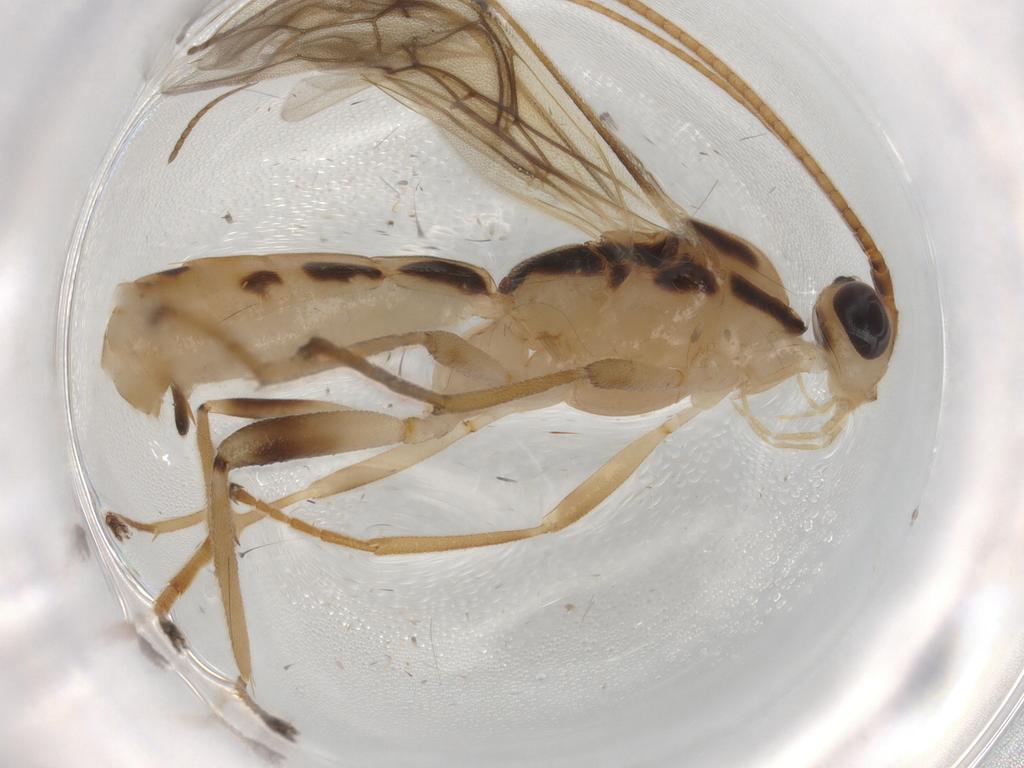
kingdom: Animalia
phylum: Arthropoda
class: Insecta
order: Hymenoptera
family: Braconidae
